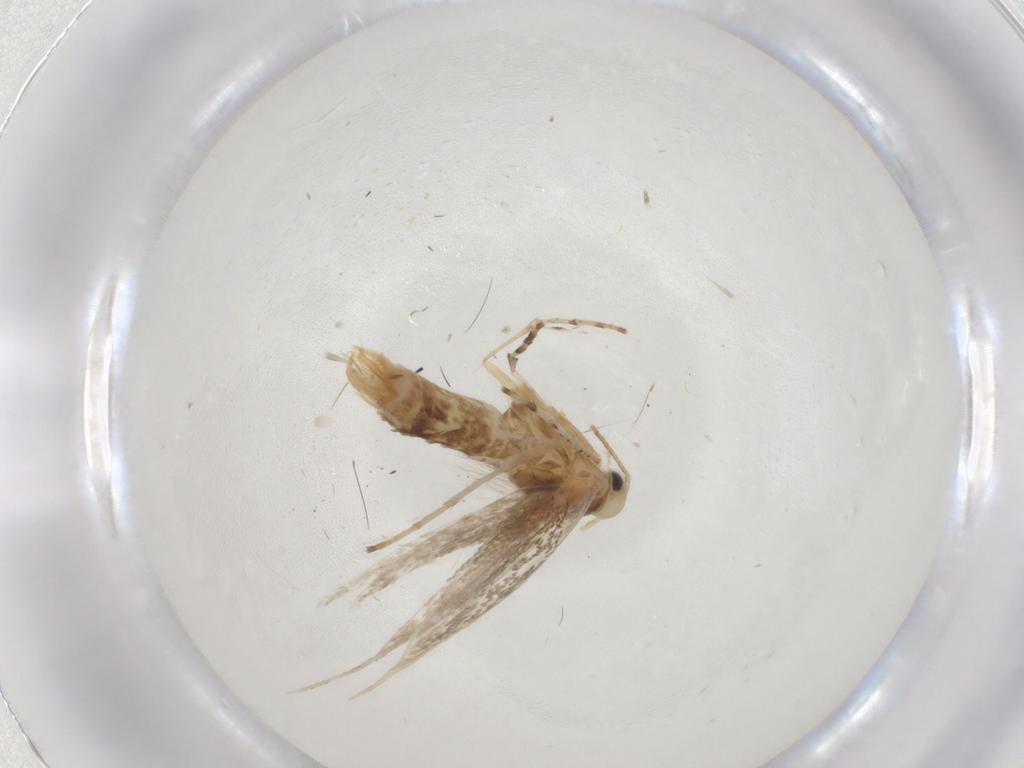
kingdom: Animalia
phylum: Arthropoda
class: Insecta
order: Lepidoptera
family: Gracillariidae
